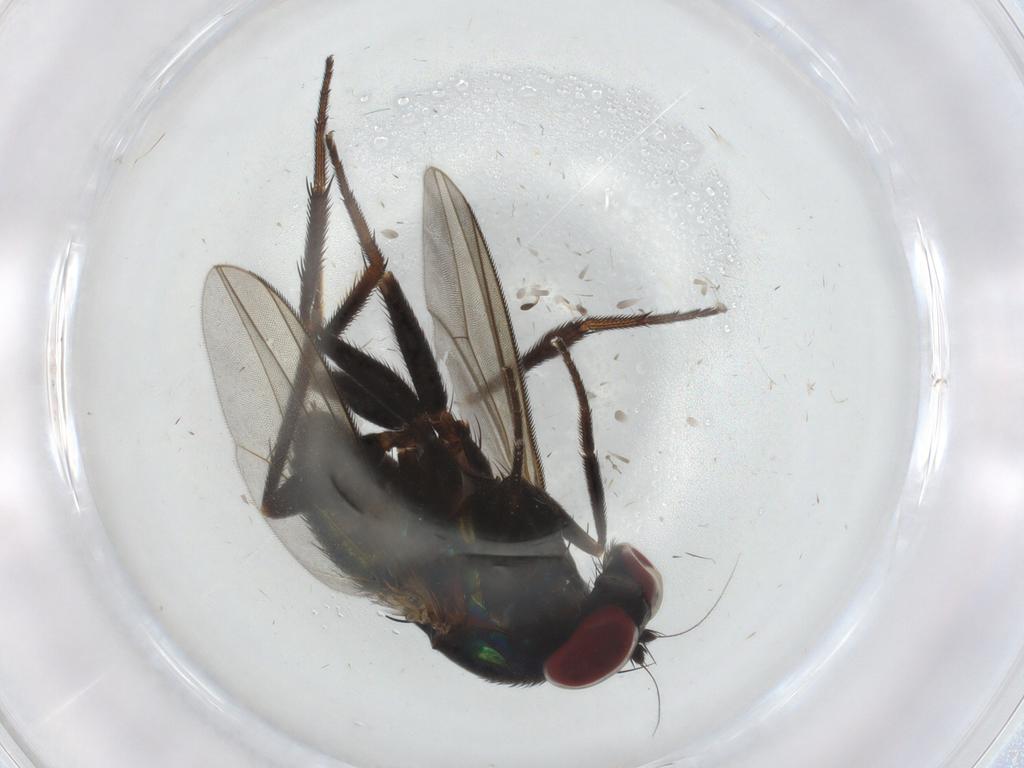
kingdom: Animalia
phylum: Arthropoda
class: Insecta
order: Diptera
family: Dolichopodidae
